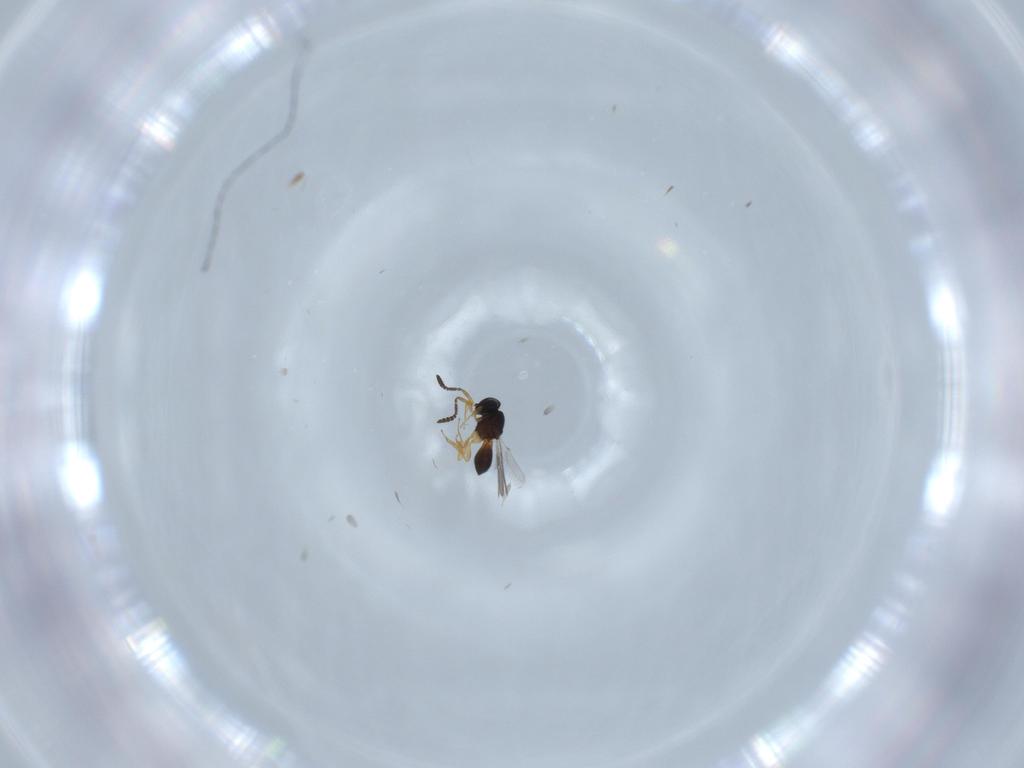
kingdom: Animalia
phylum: Arthropoda
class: Insecta
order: Hymenoptera
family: Scelionidae
